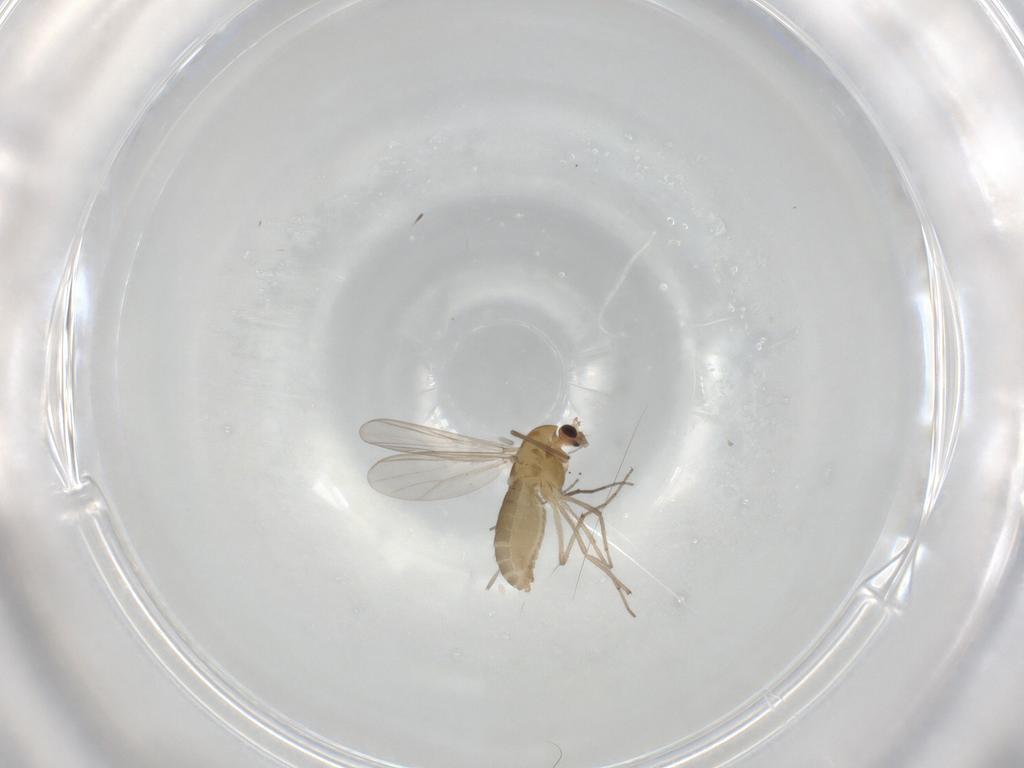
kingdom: Animalia
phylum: Arthropoda
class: Insecta
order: Diptera
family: Chironomidae
